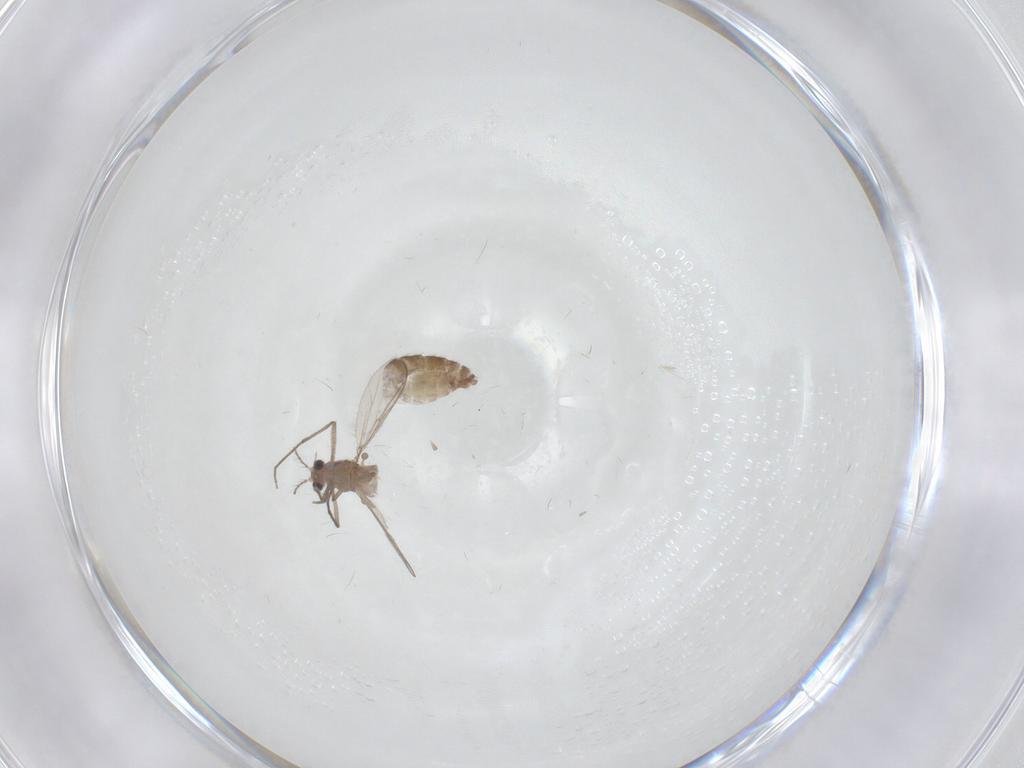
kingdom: Animalia
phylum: Arthropoda
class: Insecta
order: Diptera
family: Chironomidae
